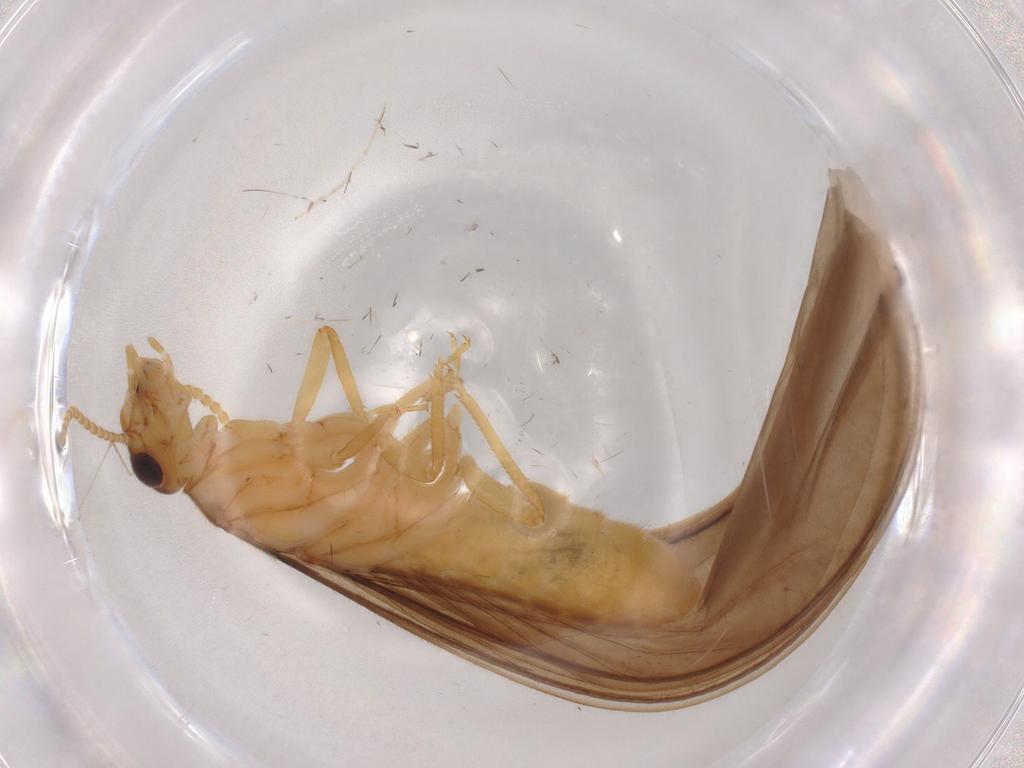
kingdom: Animalia
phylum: Arthropoda
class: Insecta
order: Blattodea
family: Termitidae
